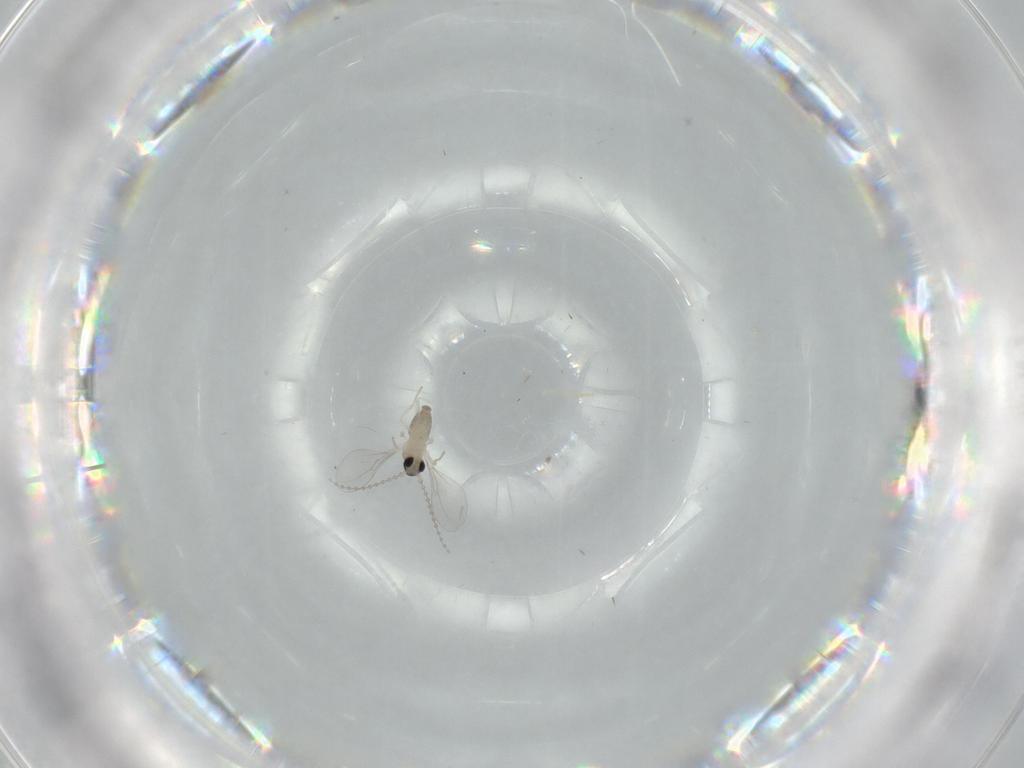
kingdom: Animalia
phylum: Arthropoda
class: Insecta
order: Diptera
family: Cecidomyiidae
